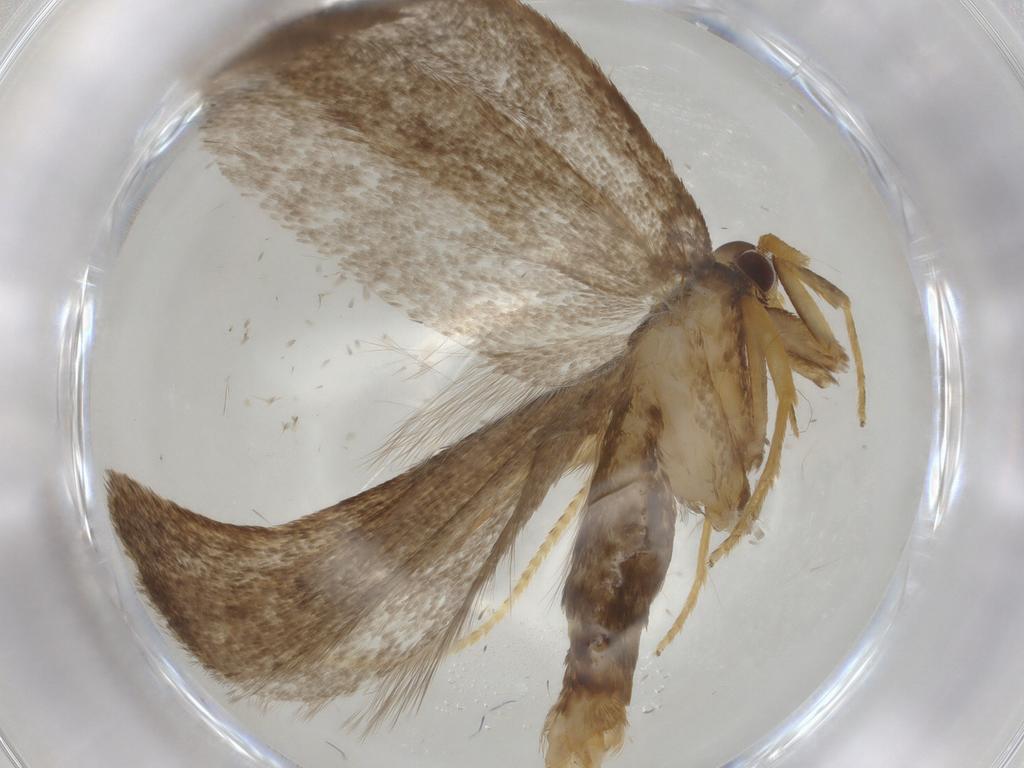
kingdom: Animalia
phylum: Arthropoda
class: Insecta
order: Lepidoptera
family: Lecithoceridae
